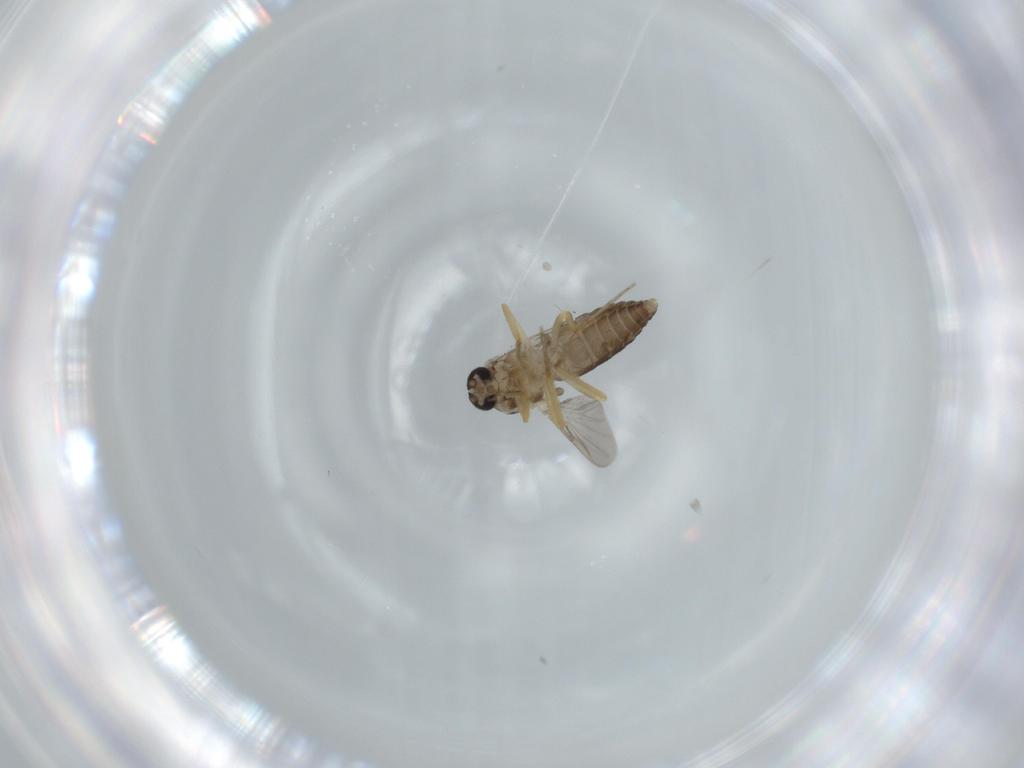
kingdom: Animalia
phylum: Arthropoda
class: Insecta
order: Diptera
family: Ceratopogonidae
